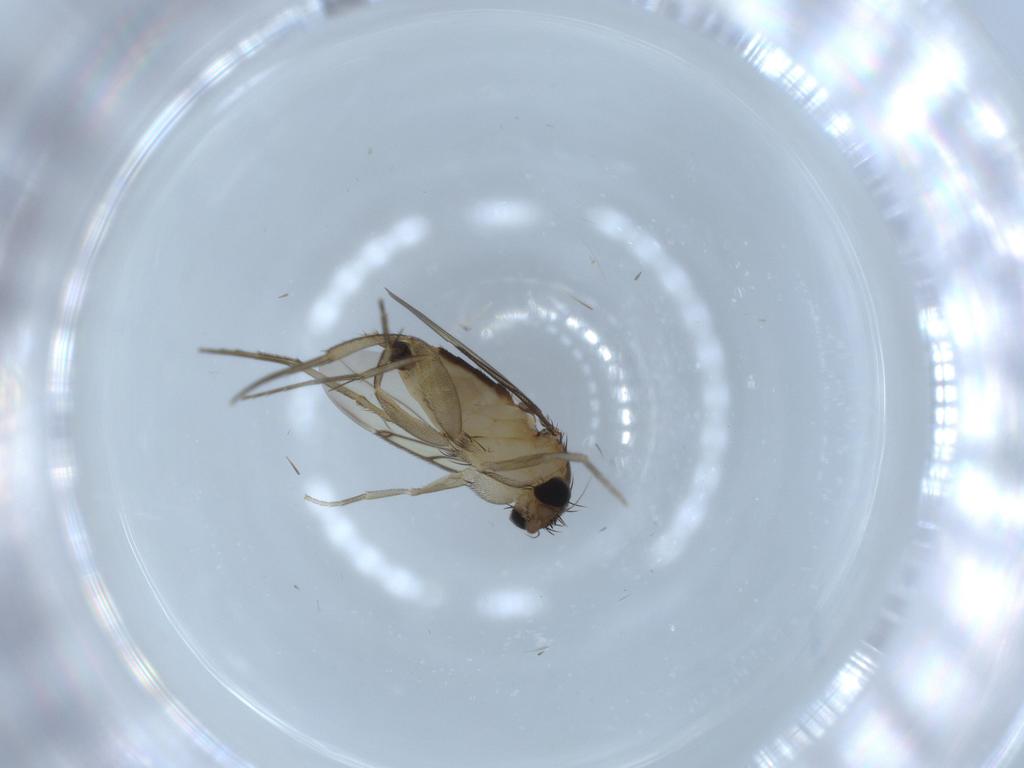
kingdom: Animalia
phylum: Arthropoda
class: Insecta
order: Diptera
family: Phoridae
